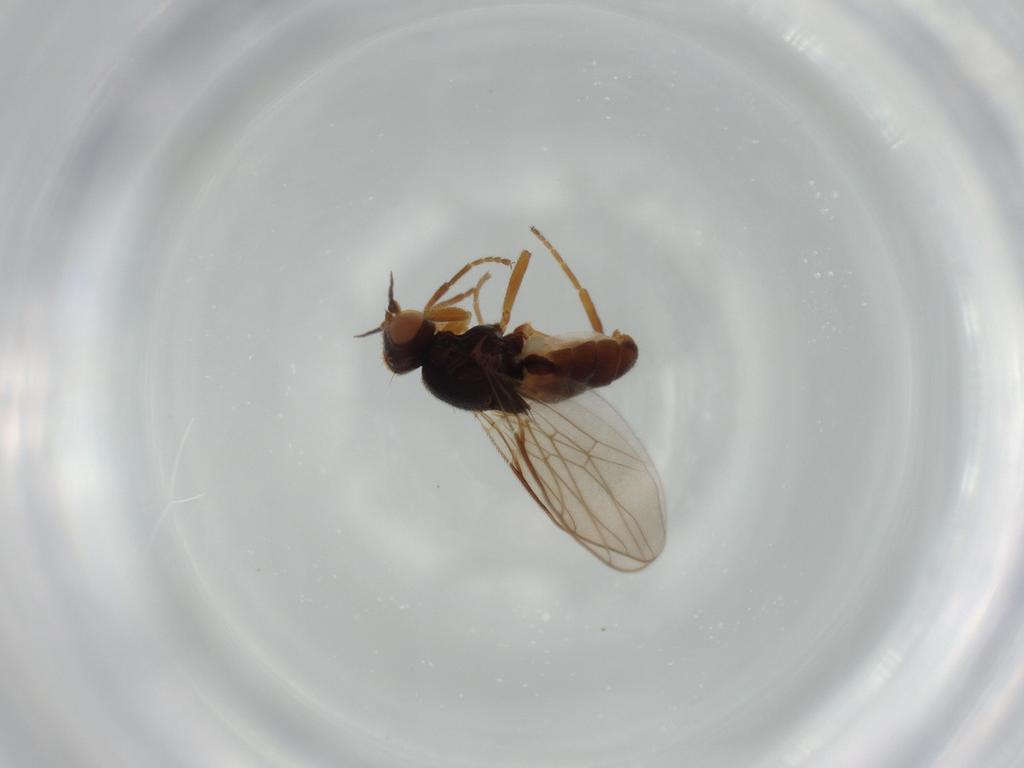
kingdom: Animalia
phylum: Arthropoda
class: Insecta
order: Diptera
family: Chloropidae
